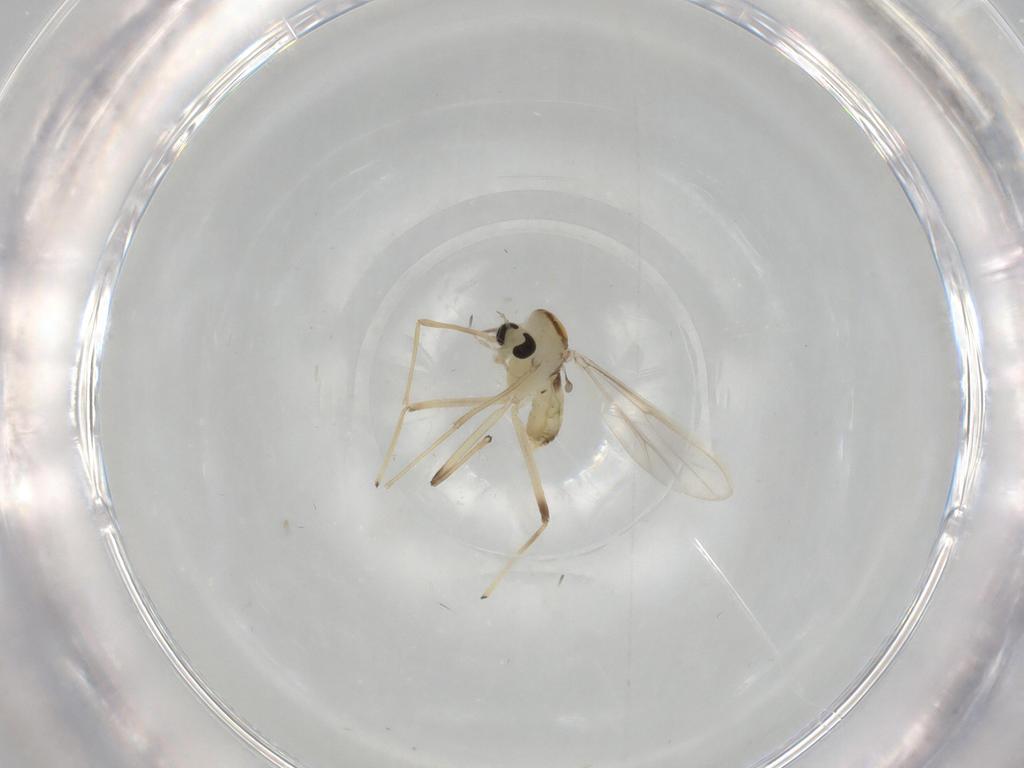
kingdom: Animalia
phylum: Arthropoda
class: Insecta
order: Diptera
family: Chironomidae
